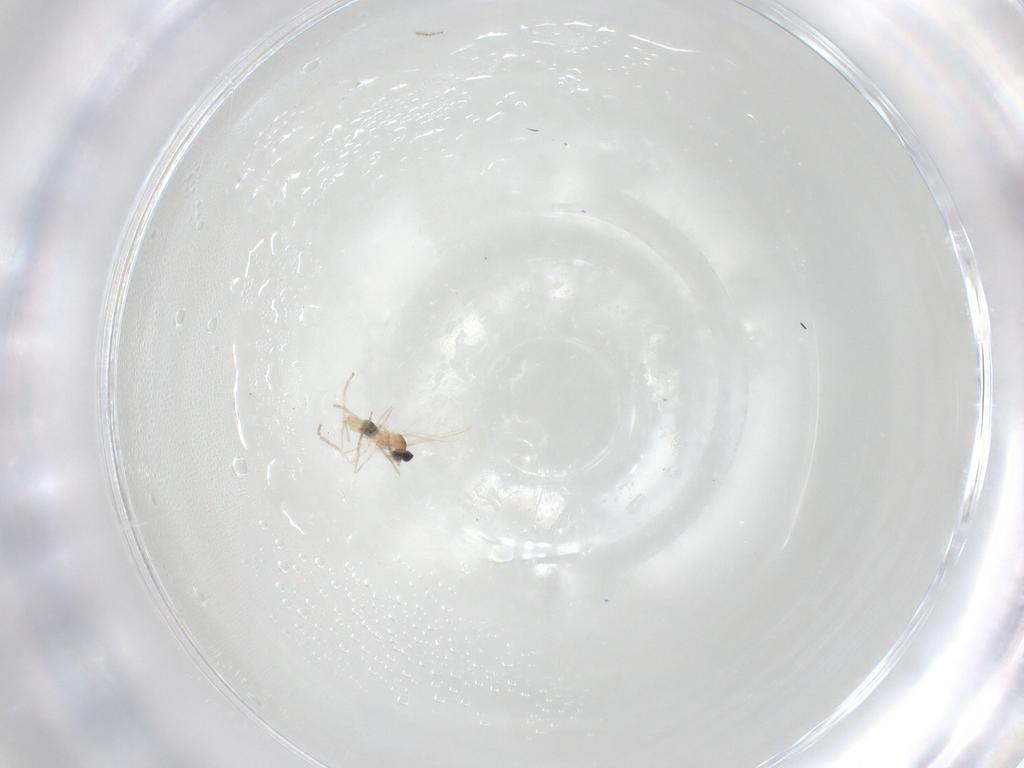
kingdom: Animalia
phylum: Arthropoda
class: Insecta
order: Diptera
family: Cecidomyiidae
